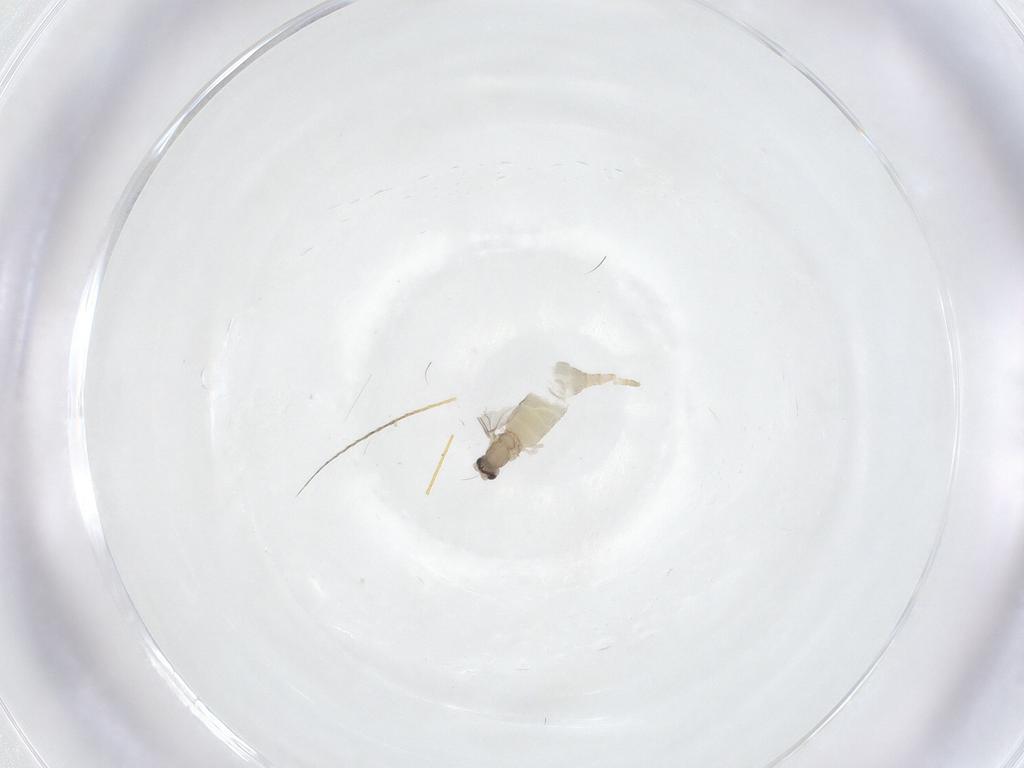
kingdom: Animalia
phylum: Arthropoda
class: Insecta
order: Diptera
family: Cecidomyiidae
